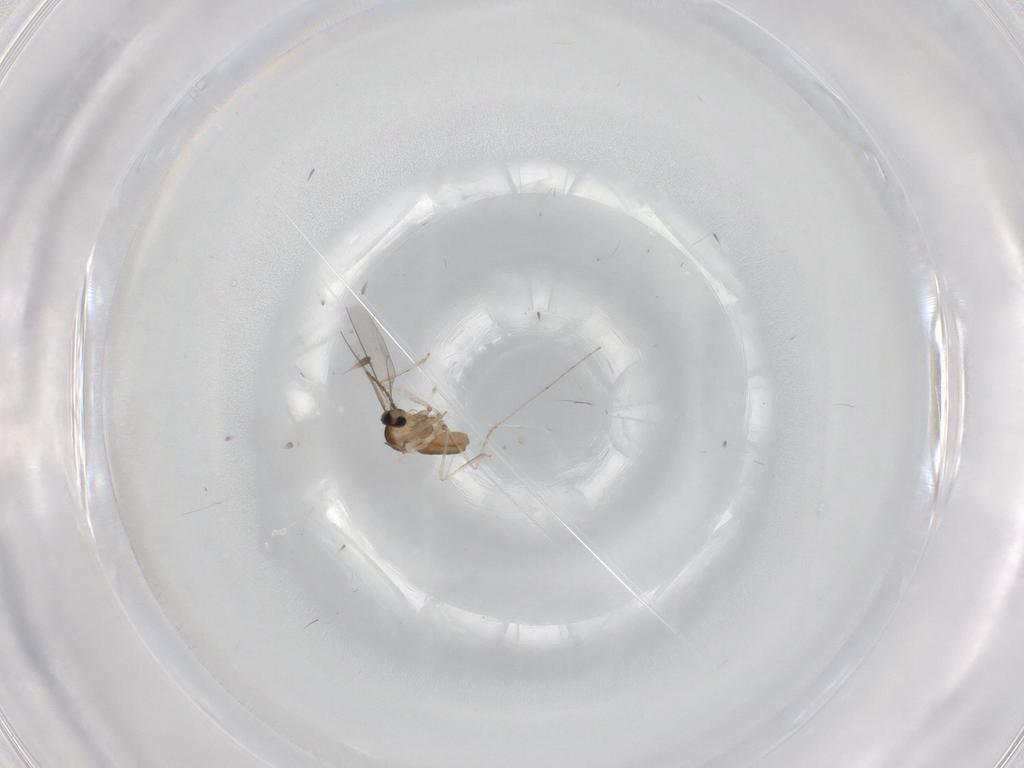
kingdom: Animalia
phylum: Arthropoda
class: Insecta
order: Diptera
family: Cecidomyiidae
